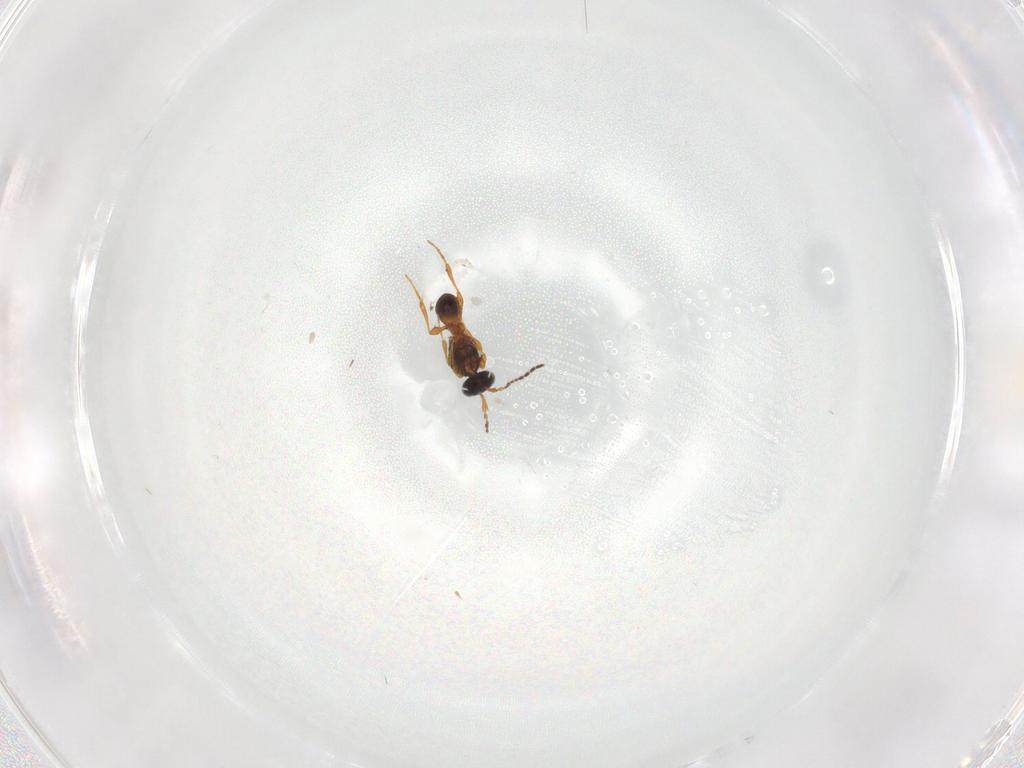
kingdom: Animalia
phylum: Arthropoda
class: Insecta
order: Hymenoptera
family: Platygastridae
